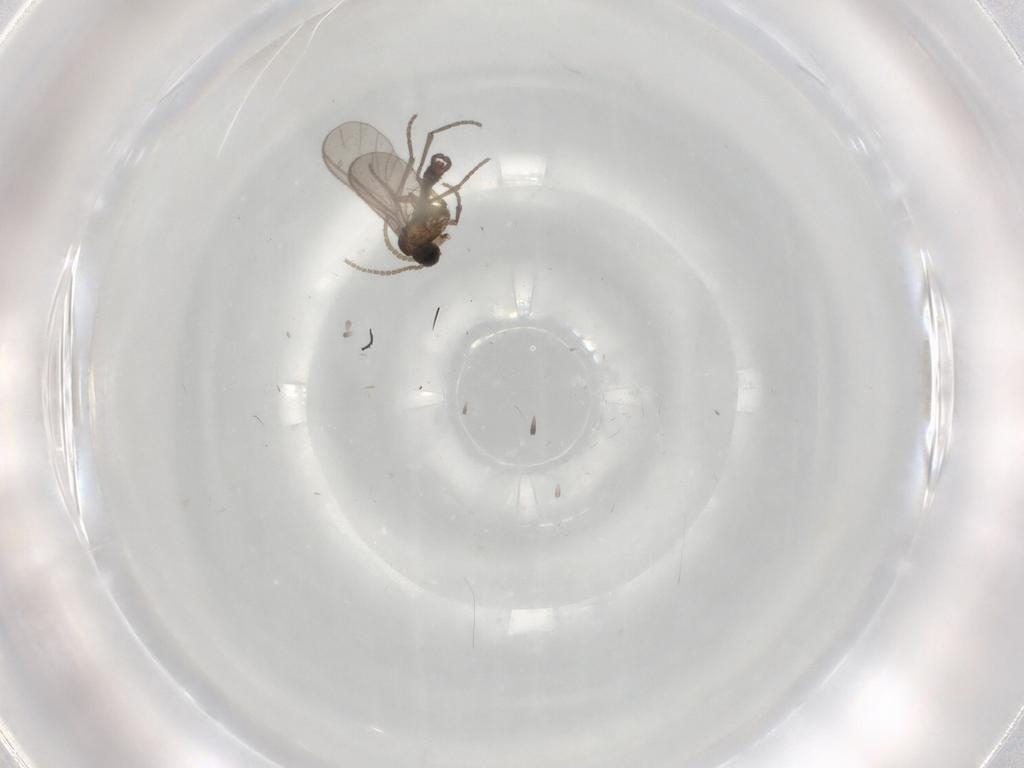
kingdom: Animalia
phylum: Arthropoda
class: Insecta
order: Diptera
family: Sciaridae
